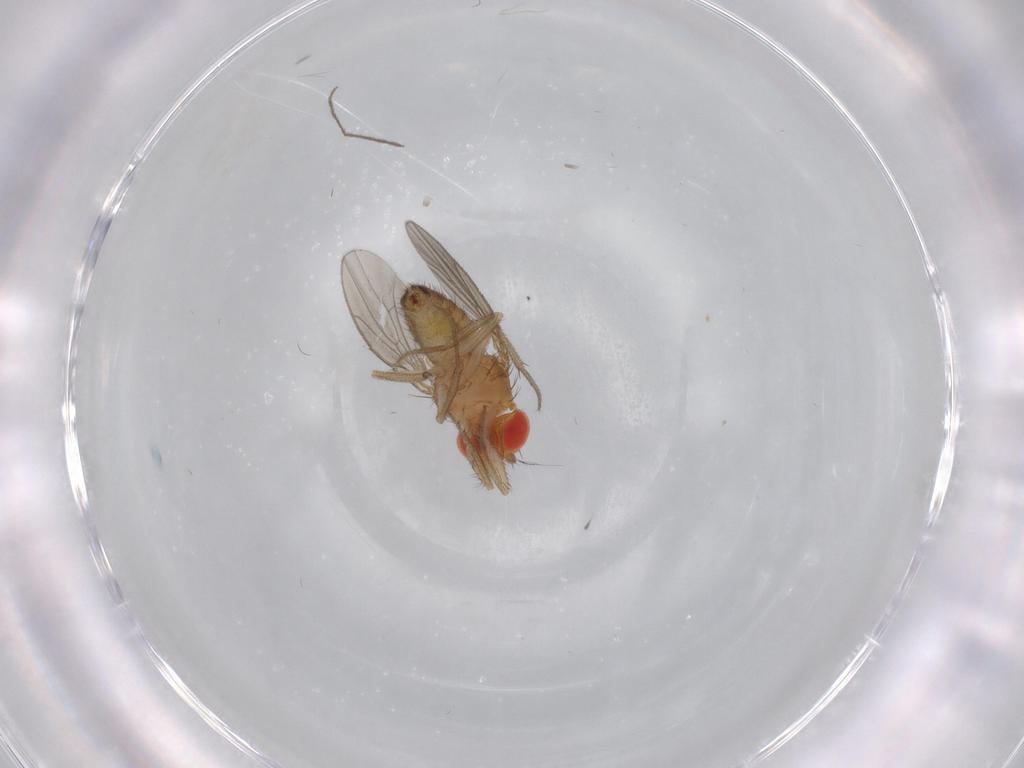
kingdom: Animalia
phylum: Arthropoda
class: Insecta
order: Diptera
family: Drosophilidae
